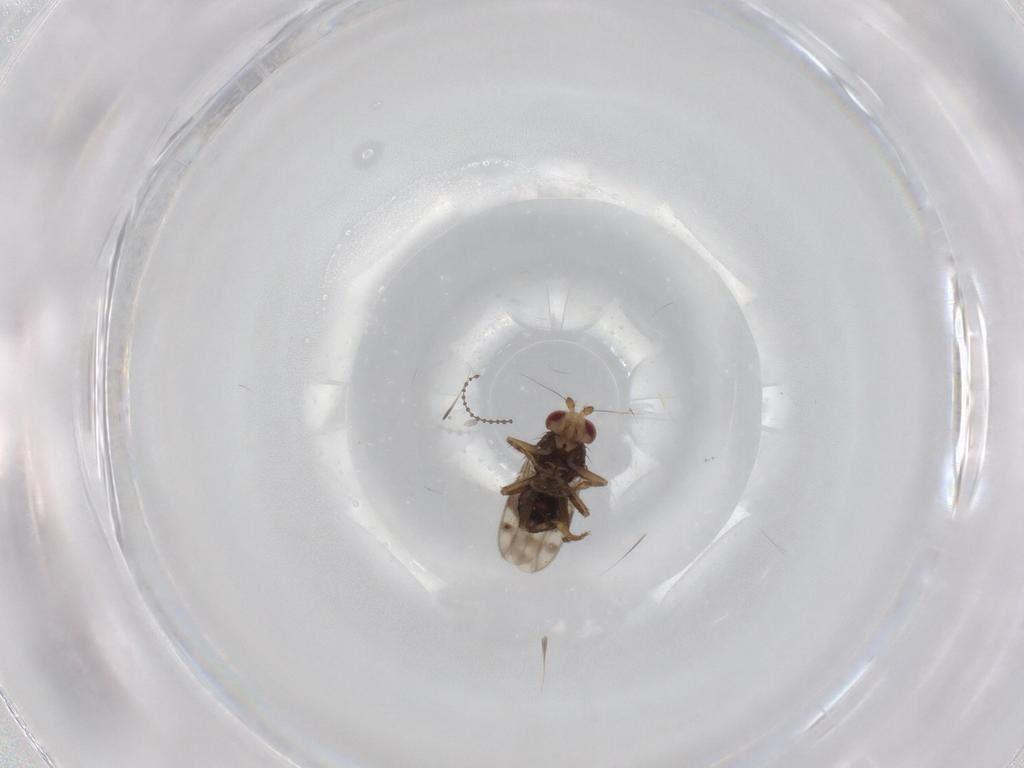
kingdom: Animalia
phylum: Arthropoda
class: Insecta
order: Diptera
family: Sphaeroceridae
